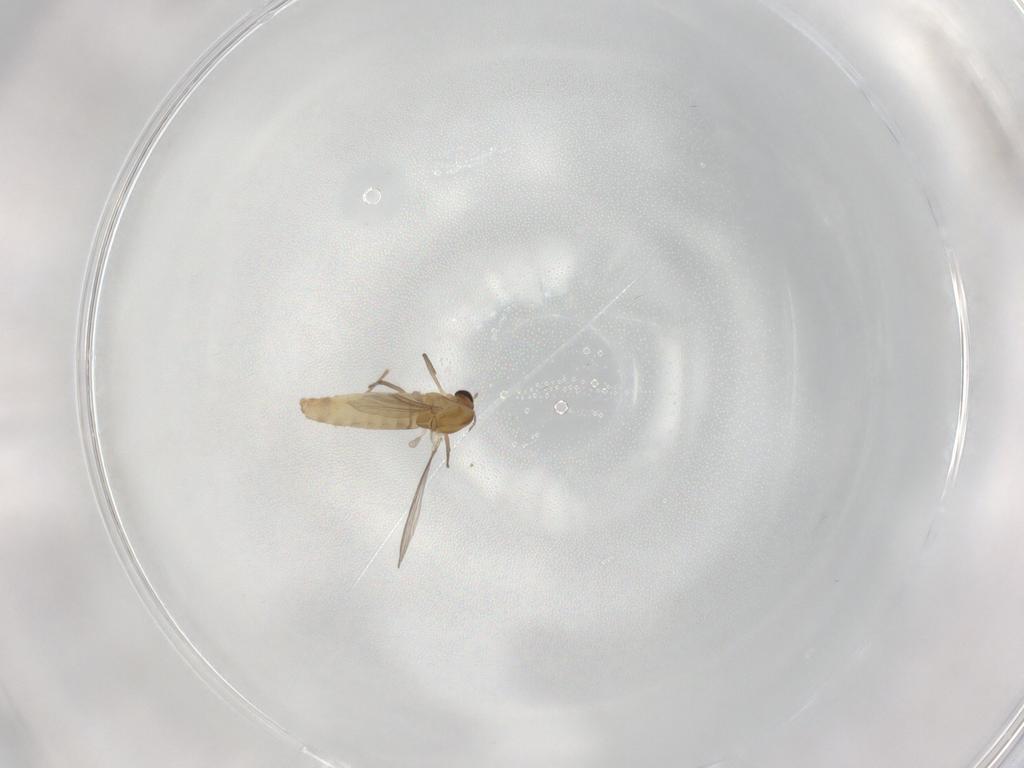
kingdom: Animalia
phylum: Arthropoda
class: Insecta
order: Diptera
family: Chironomidae
